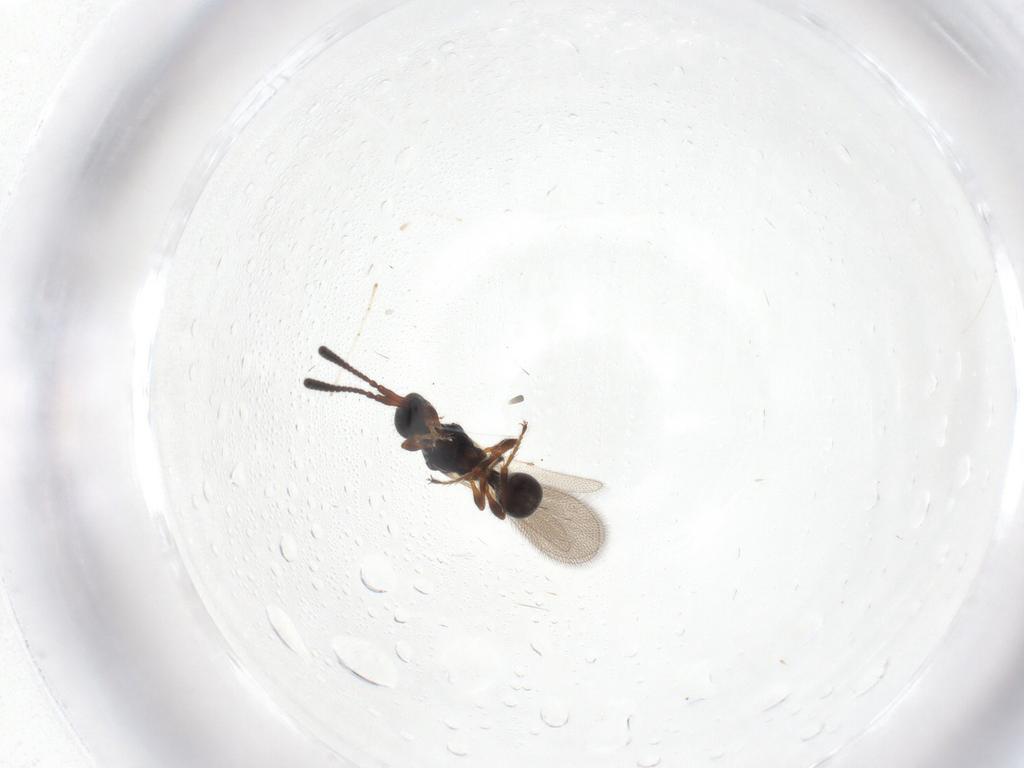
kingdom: Animalia
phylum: Arthropoda
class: Insecta
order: Hymenoptera
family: Diapriidae
